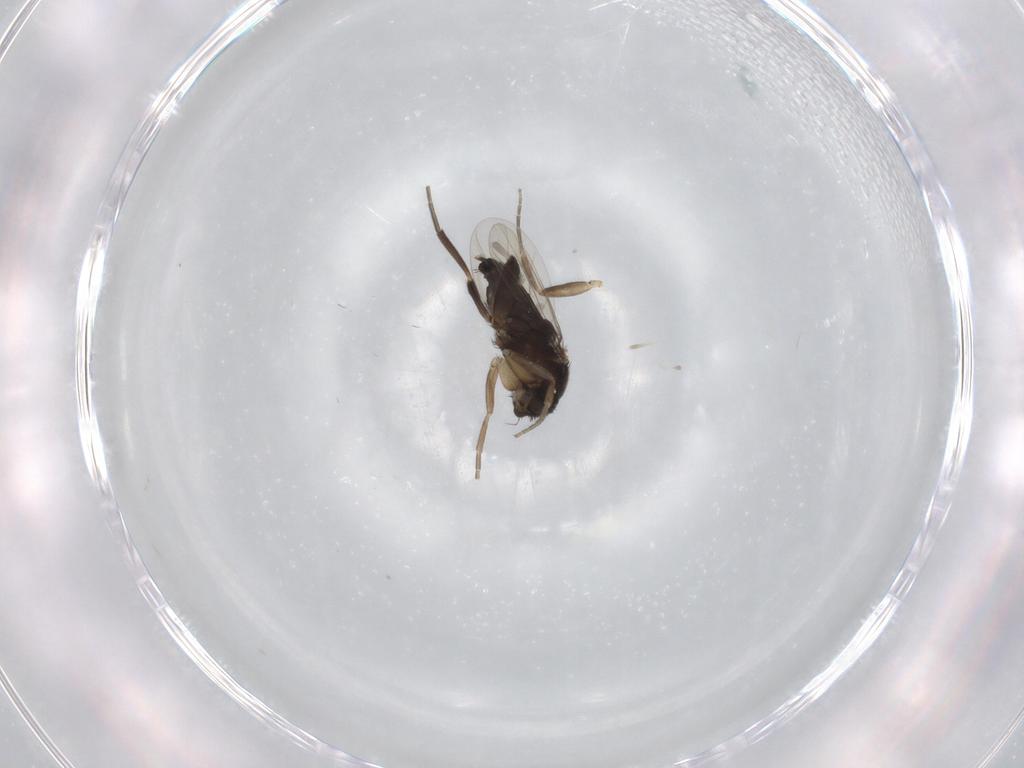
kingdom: Animalia
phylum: Arthropoda
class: Insecta
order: Diptera
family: Phoridae
